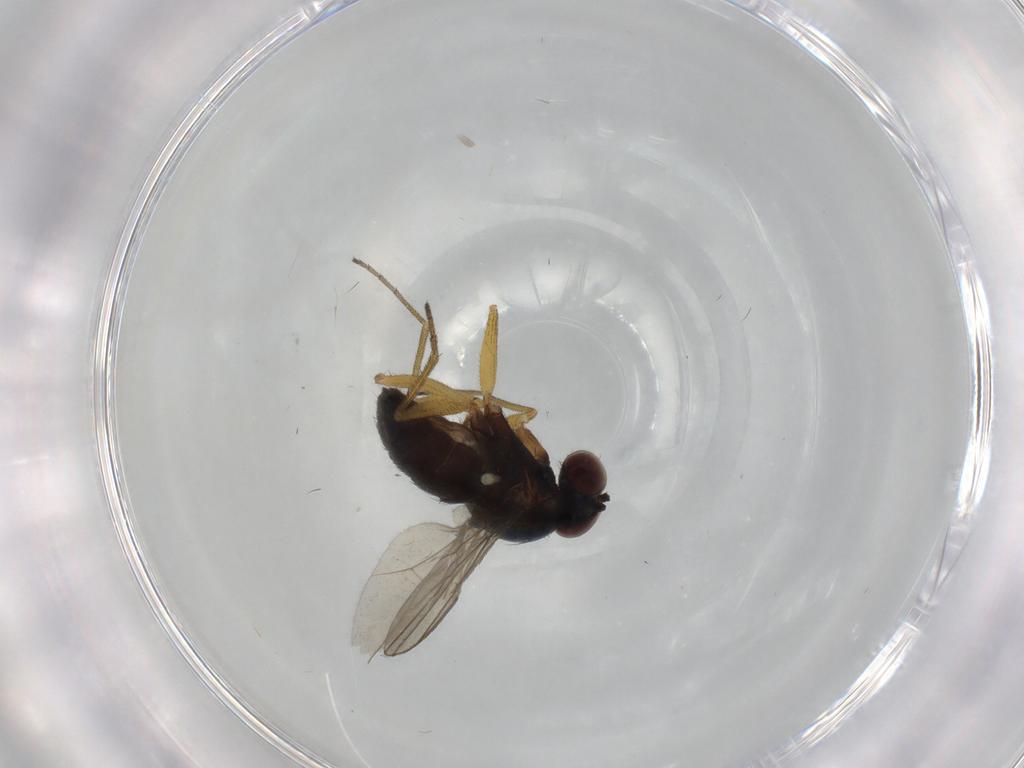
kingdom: Animalia
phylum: Arthropoda
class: Insecta
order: Diptera
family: Dolichopodidae
